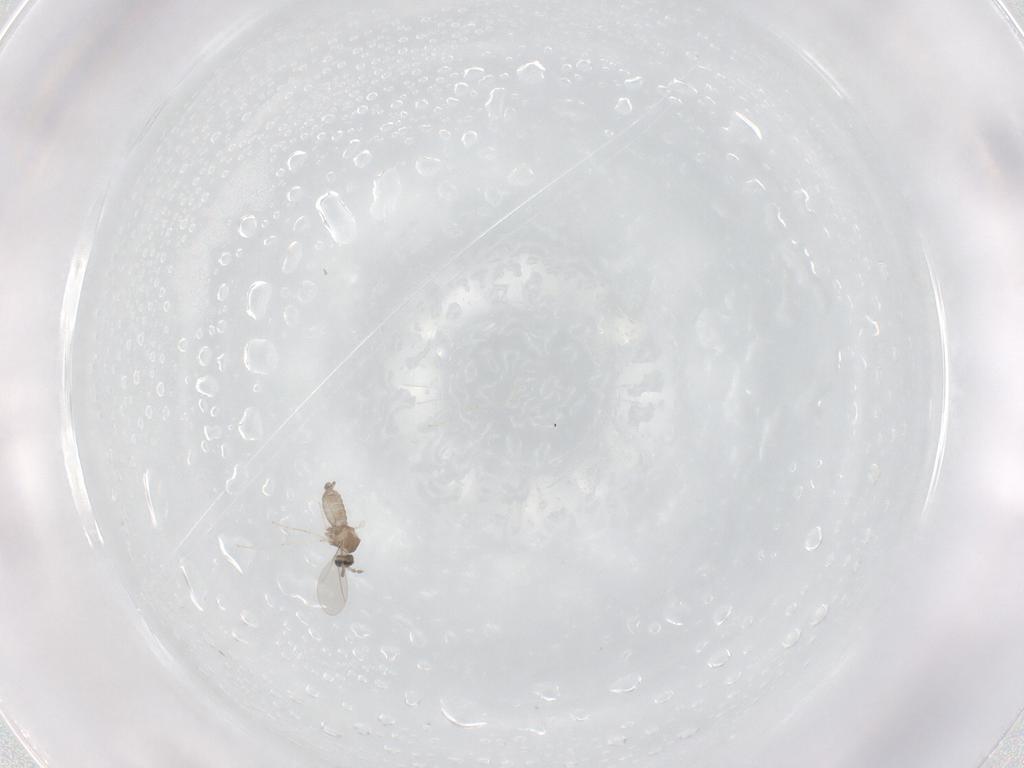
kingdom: Animalia
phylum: Arthropoda
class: Insecta
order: Diptera
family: Cecidomyiidae
